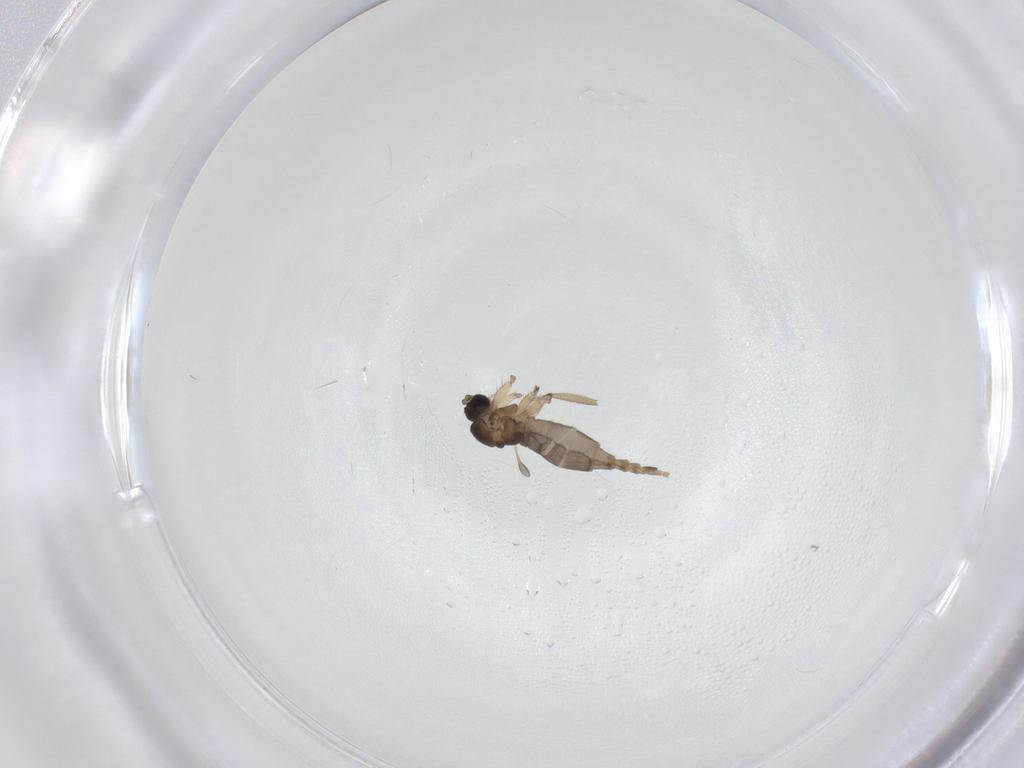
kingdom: Animalia
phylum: Arthropoda
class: Insecta
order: Diptera
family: Sciaridae
